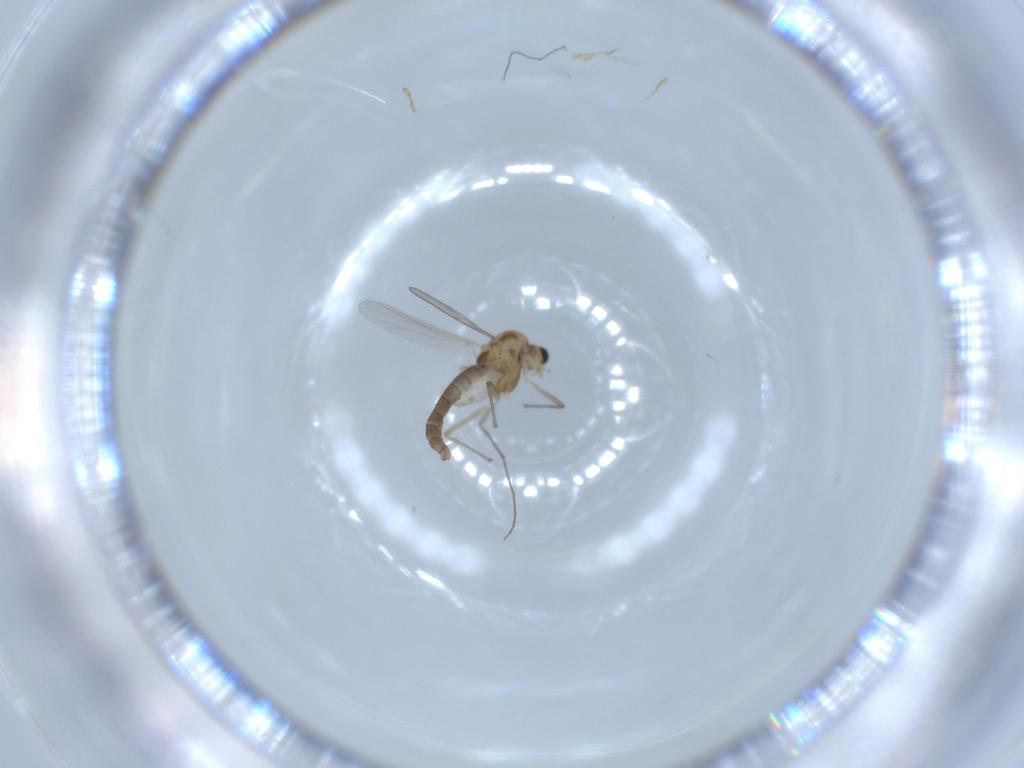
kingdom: Animalia
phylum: Arthropoda
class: Insecta
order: Diptera
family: Chironomidae
